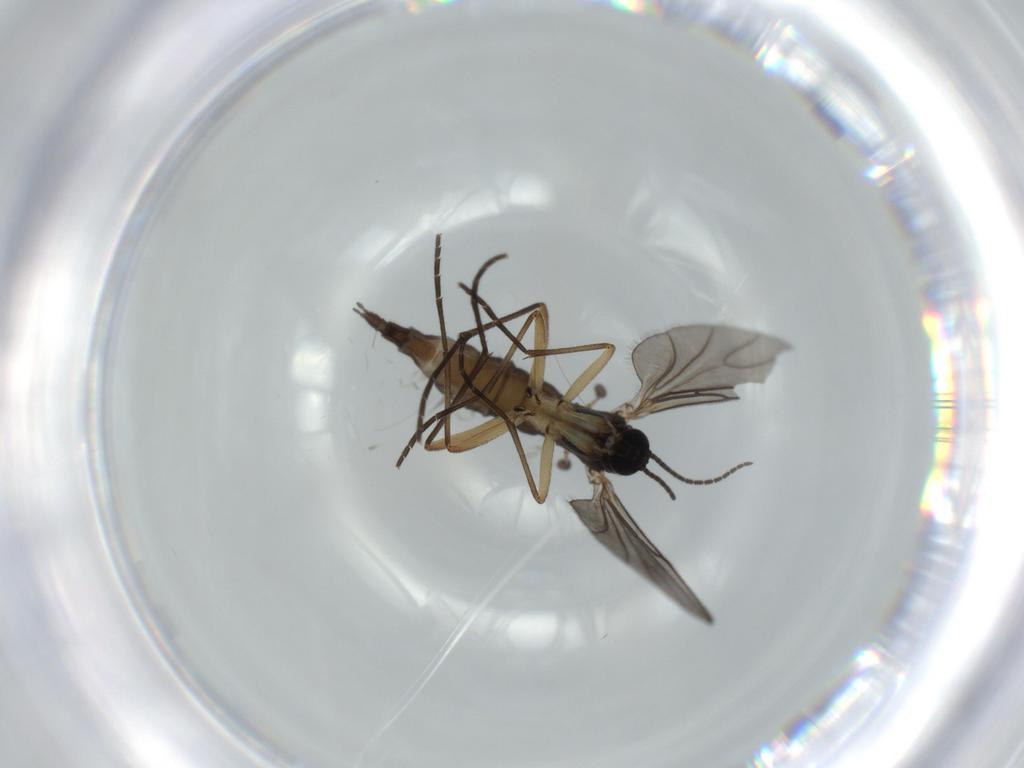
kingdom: Animalia
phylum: Arthropoda
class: Insecta
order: Diptera
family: Sciaridae
